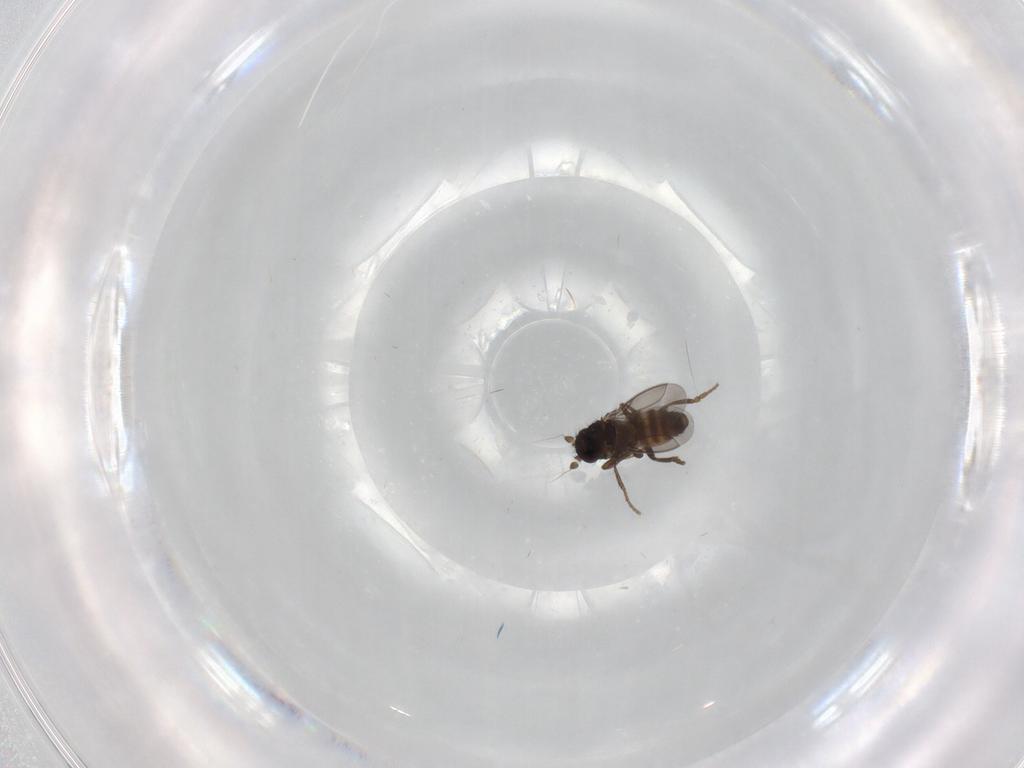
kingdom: Animalia
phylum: Arthropoda
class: Insecta
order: Diptera
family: Sphaeroceridae
